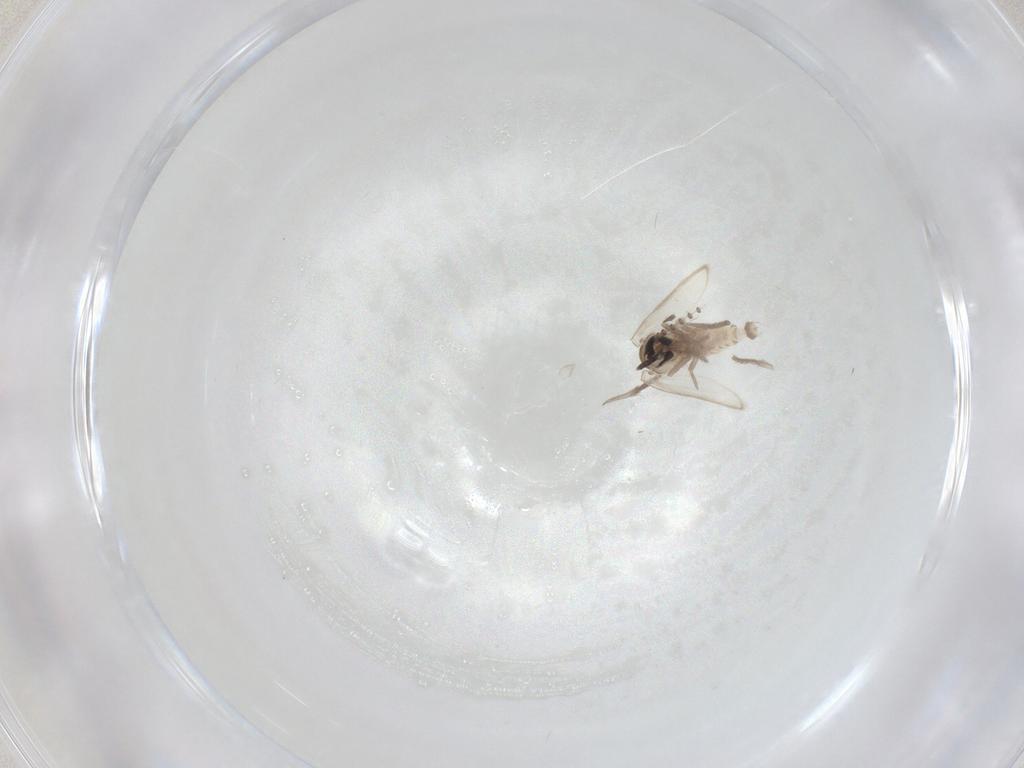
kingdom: Animalia
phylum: Arthropoda
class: Insecta
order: Diptera
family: Psychodidae
